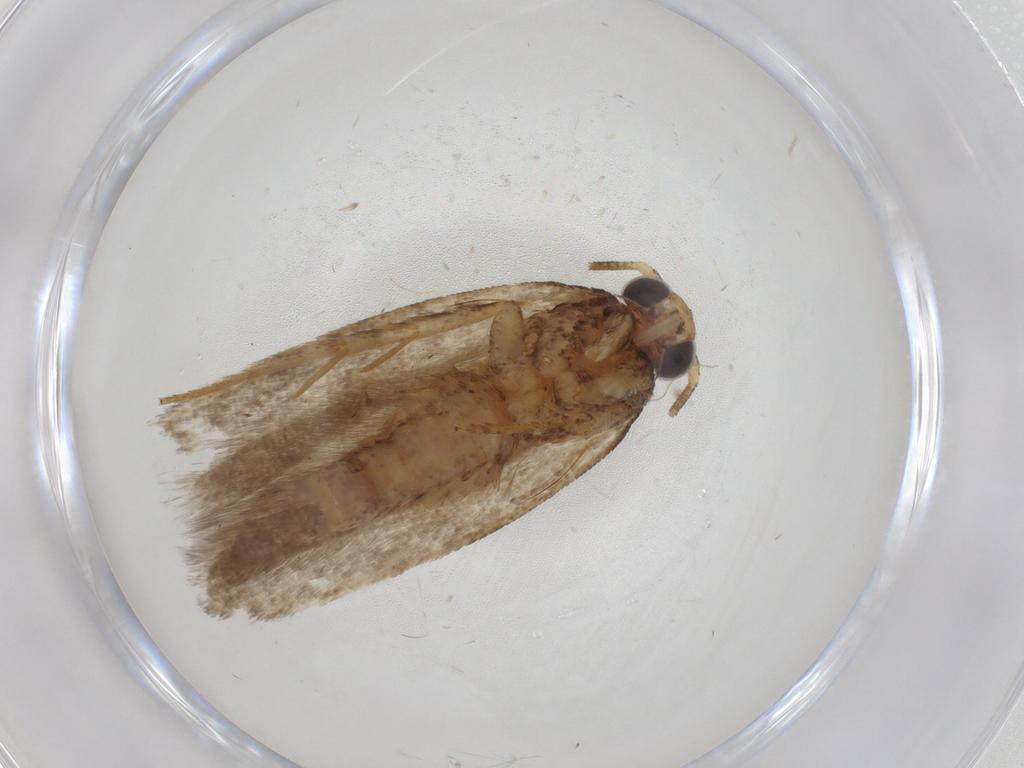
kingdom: Animalia
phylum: Arthropoda
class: Insecta
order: Lepidoptera
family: Gelechiidae
